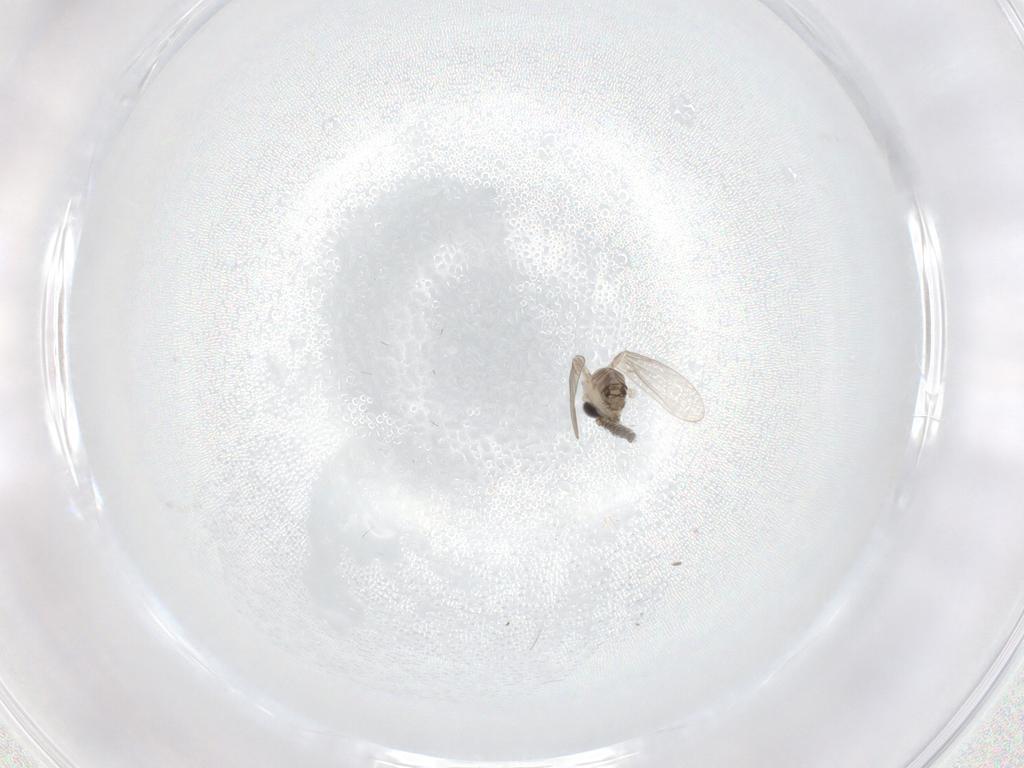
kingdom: Animalia
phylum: Arthropoda
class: Insecta
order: Diptera
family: Psychodidae
